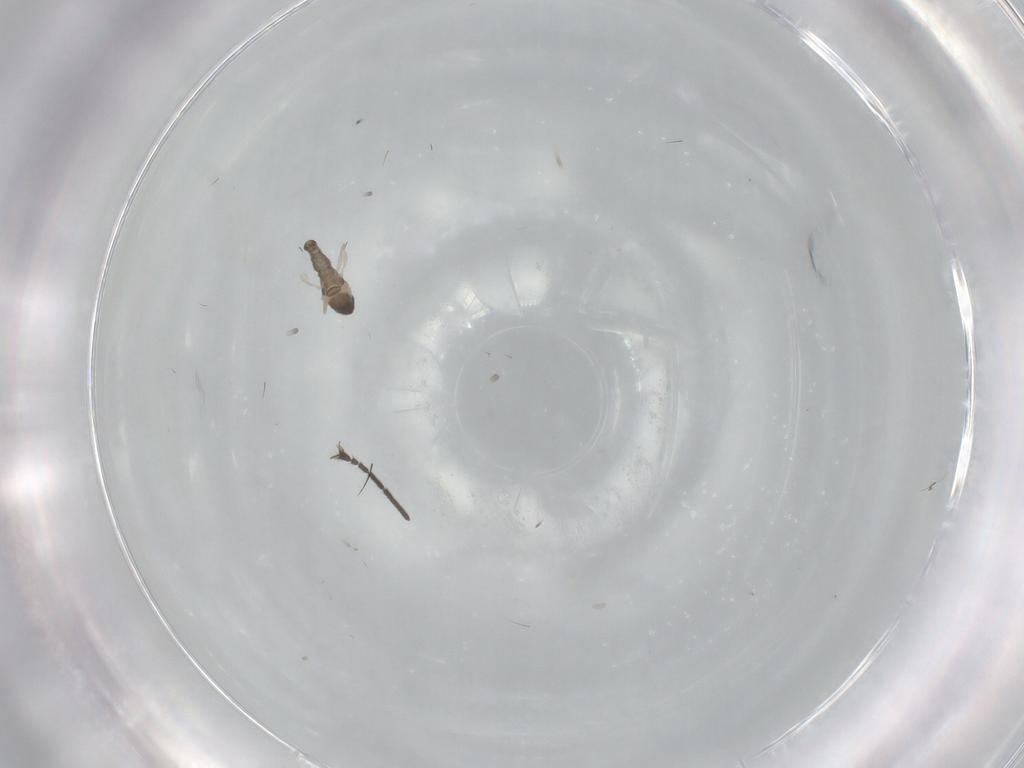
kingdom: Animalia
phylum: Arthropoda
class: Insecta
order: Diptera
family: Cecidomyiidae
